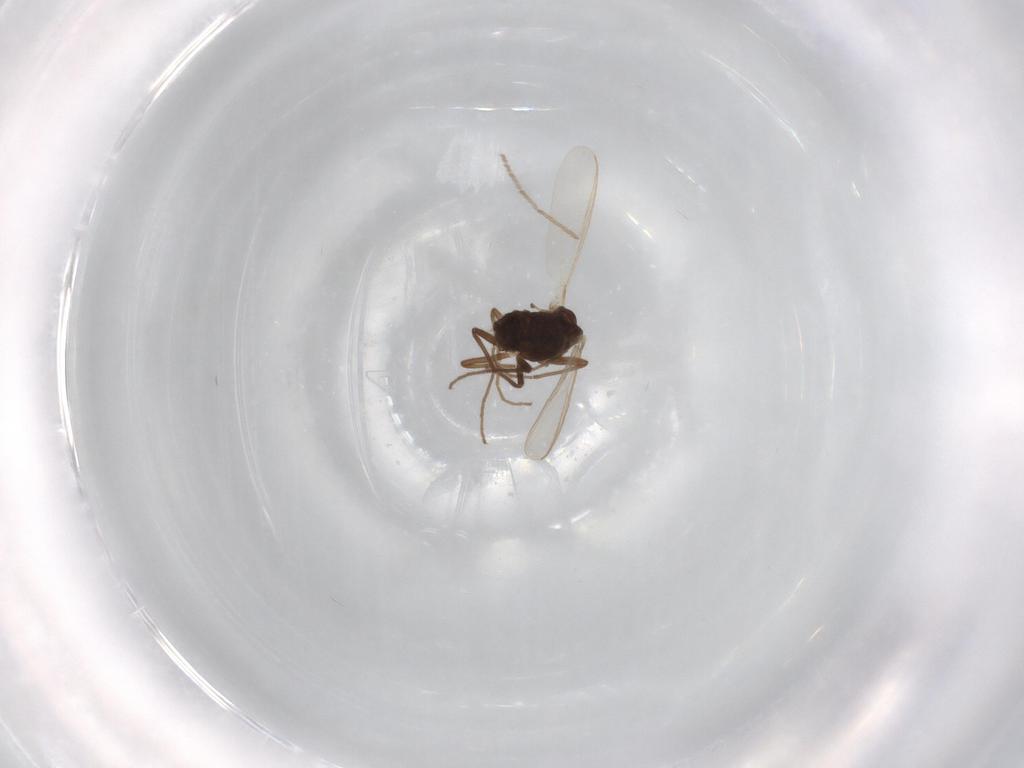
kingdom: Animalia
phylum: Arthropoda
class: Insecta
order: Diptera
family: Chironomidae
